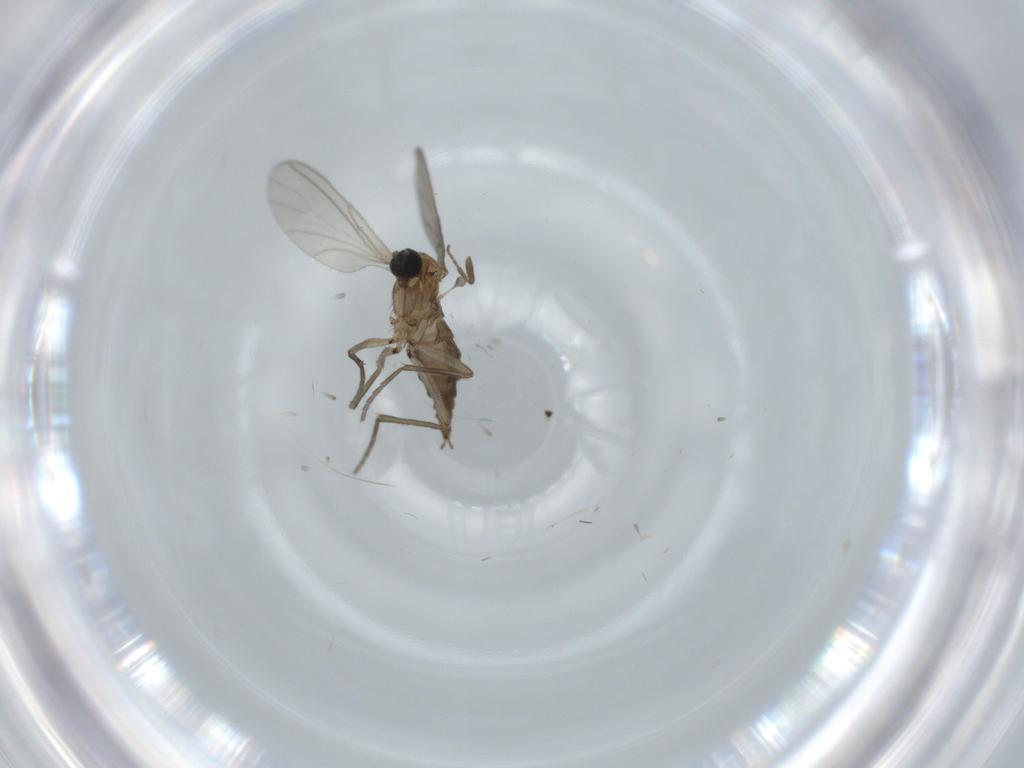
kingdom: Animalia
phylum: Arthropoda
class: Insecta
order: Diptera
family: Sciaridae
